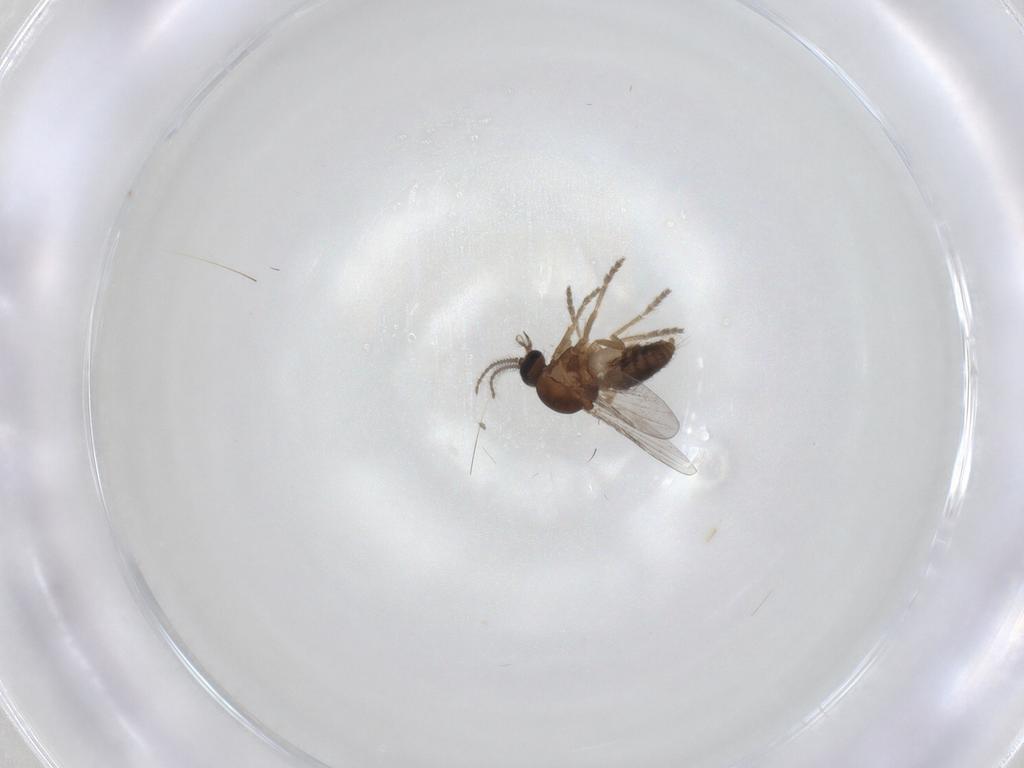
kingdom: Animalia
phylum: Arthropoda
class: Insecta
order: Diptera
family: Ceratopogonidae
